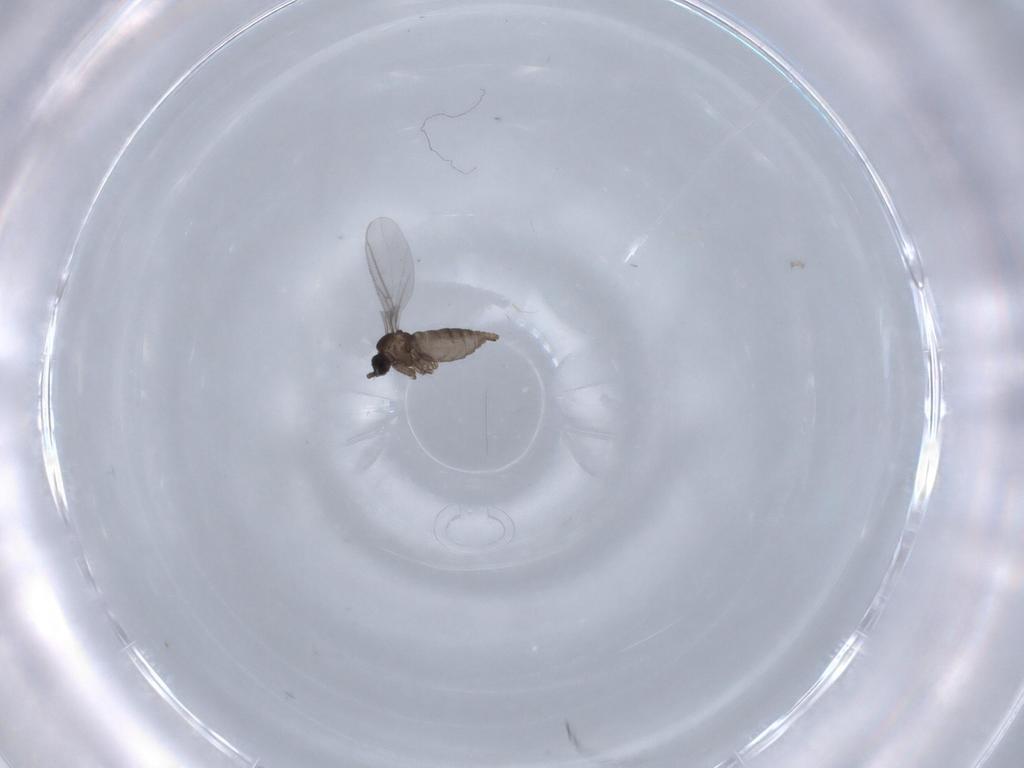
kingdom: Animalia
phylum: Arthropoda
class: Insecta
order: Diptera
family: Sciaridae
